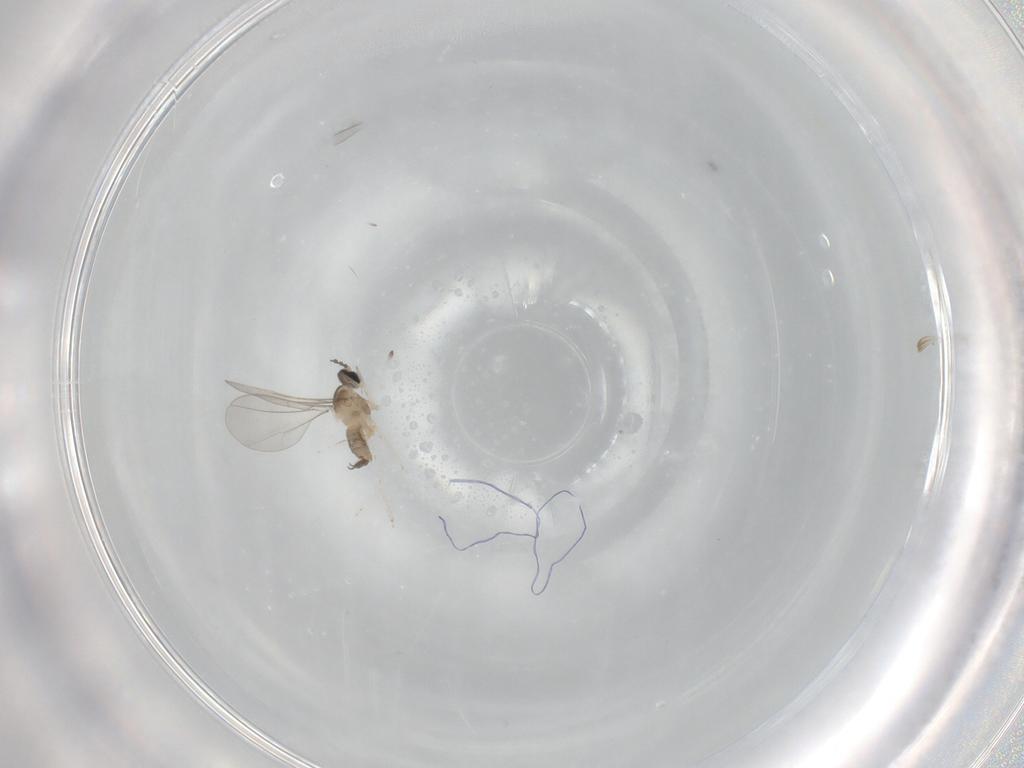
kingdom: Animalia
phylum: Arthropoda
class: Insecta
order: Diptera
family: Cecidomyiidae
